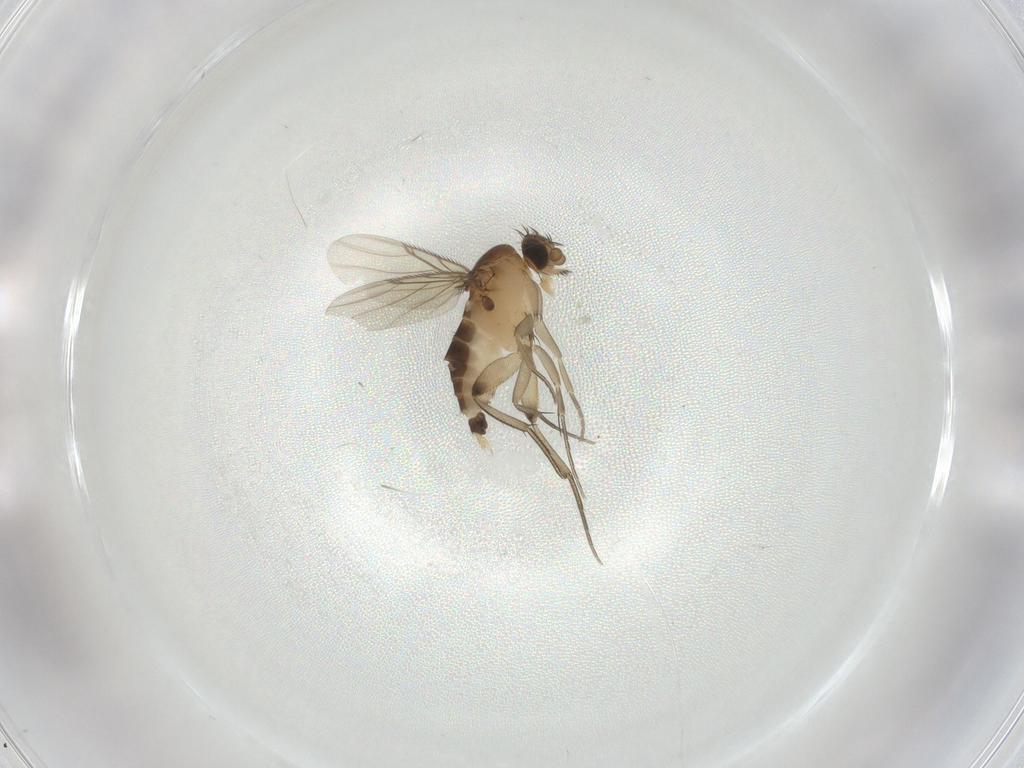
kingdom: Animalia
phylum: Arthropoda
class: Insecta
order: Diptera
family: Phoridae
